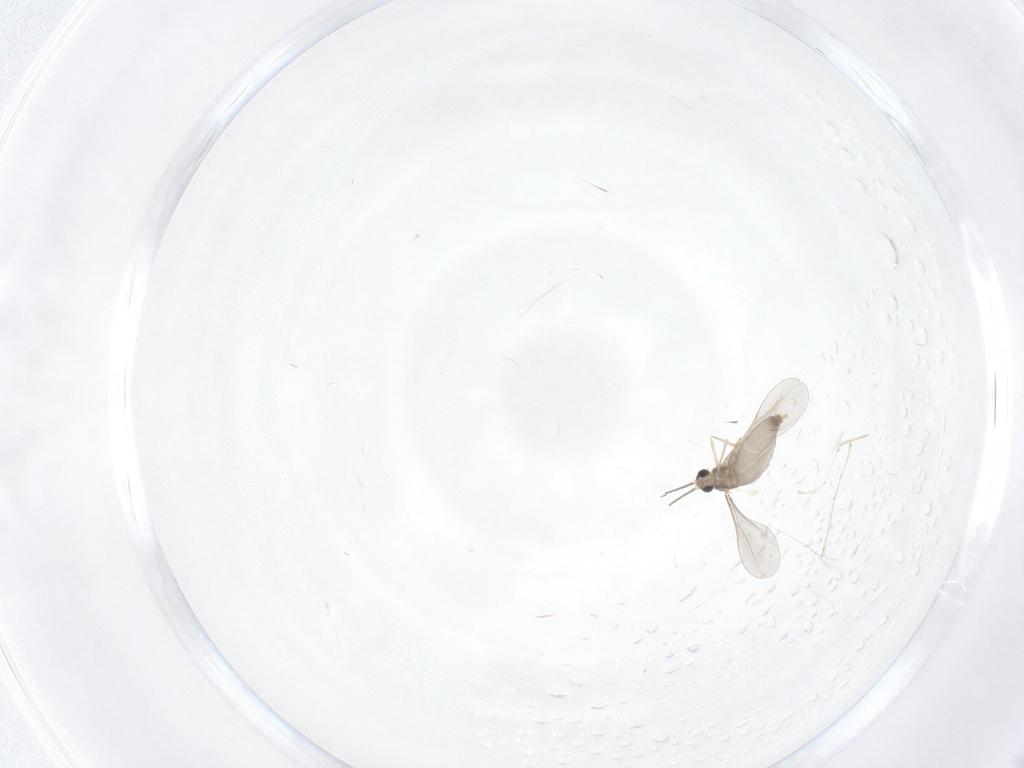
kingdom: Animalia
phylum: Arthropoda
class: Insecta
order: Diptera
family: Cecidomyiidae
